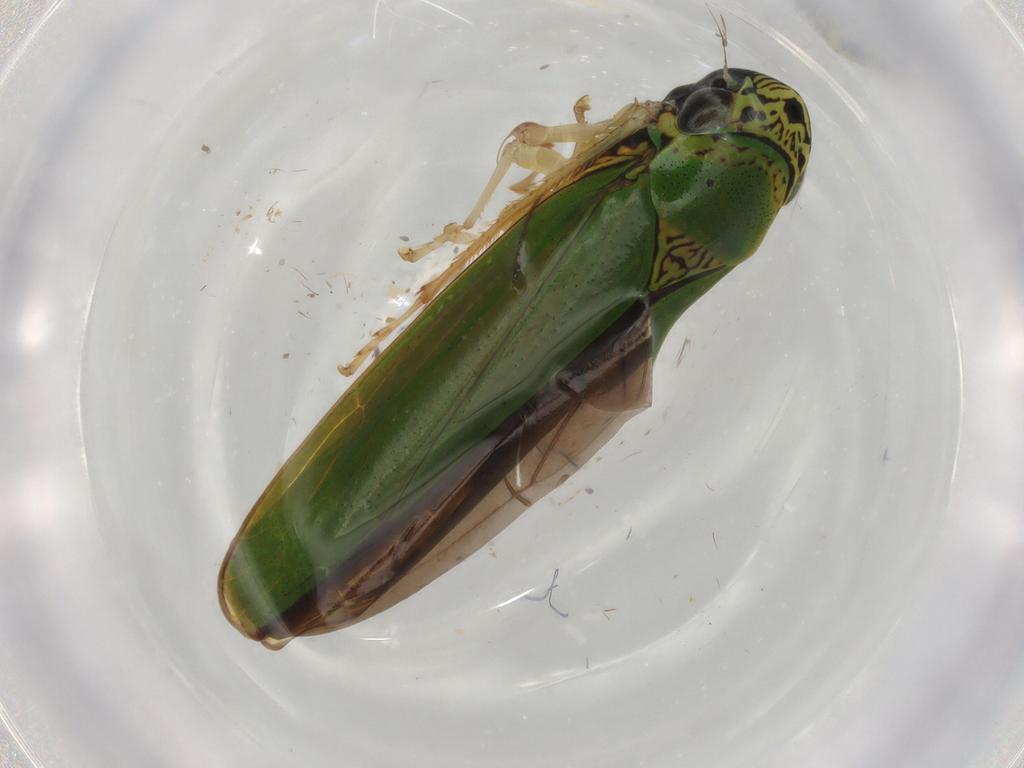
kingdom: Animalia
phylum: Arthropoda
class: Insecta
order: Hemiptera
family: Cicadellidae
